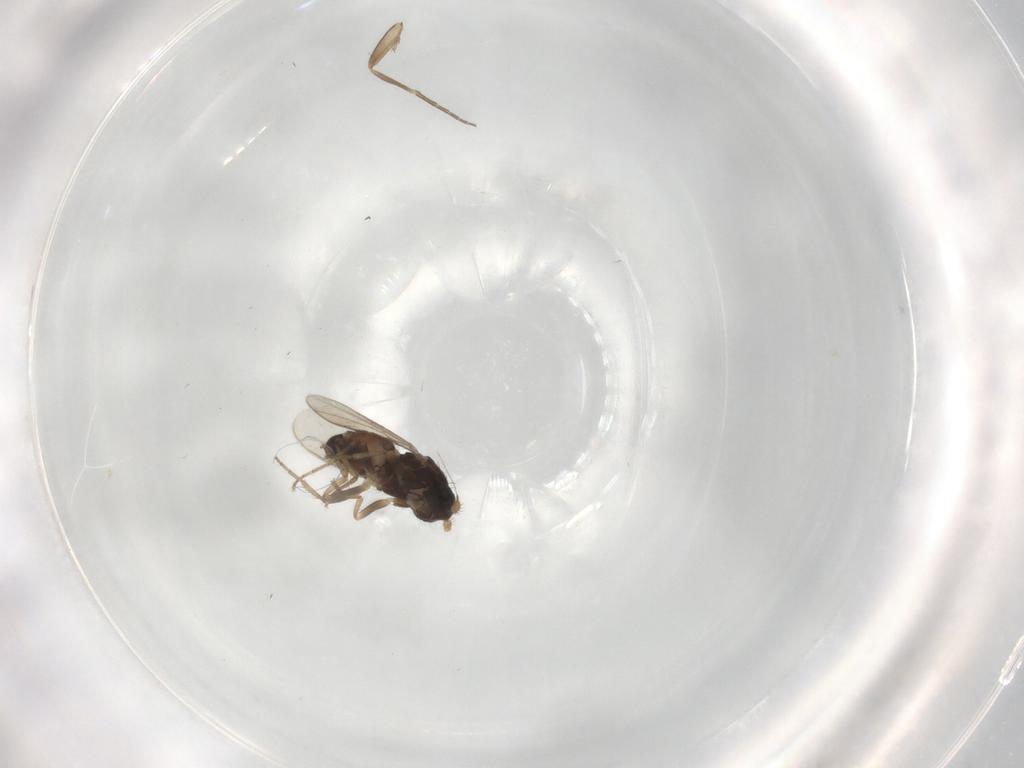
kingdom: Animalia
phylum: Arthropoda
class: Insecta
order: Diptera
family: Sphaeroceridae
